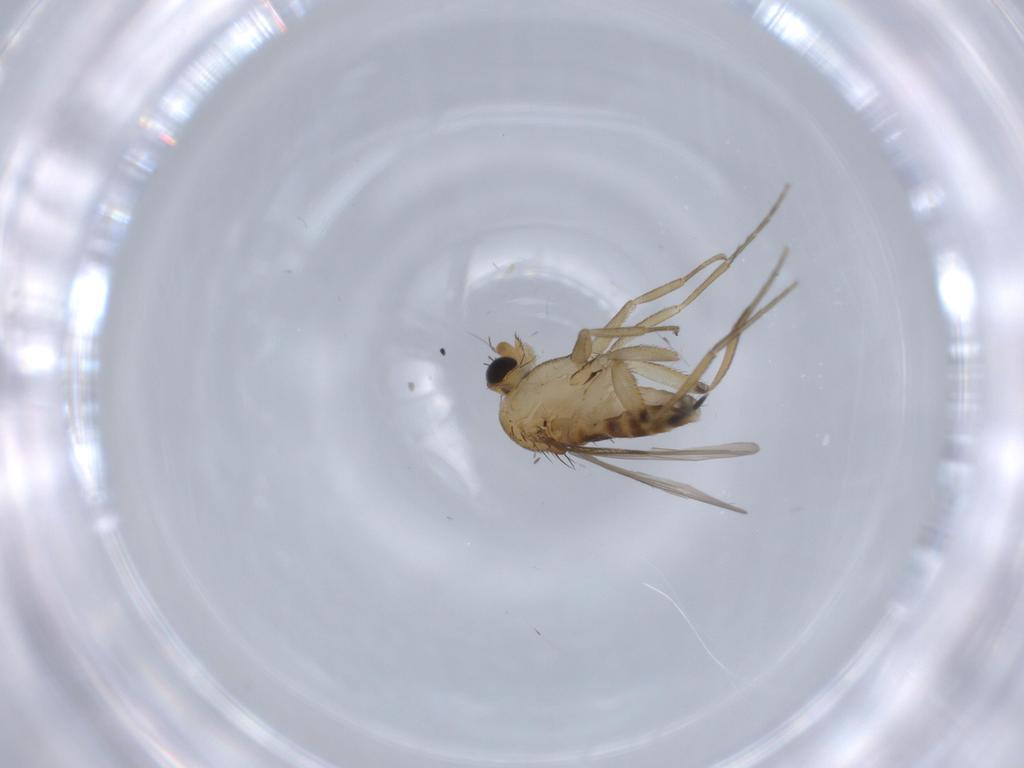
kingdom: Animalia
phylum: Arthropoda
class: Insecta
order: Diptera
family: Phoridae
